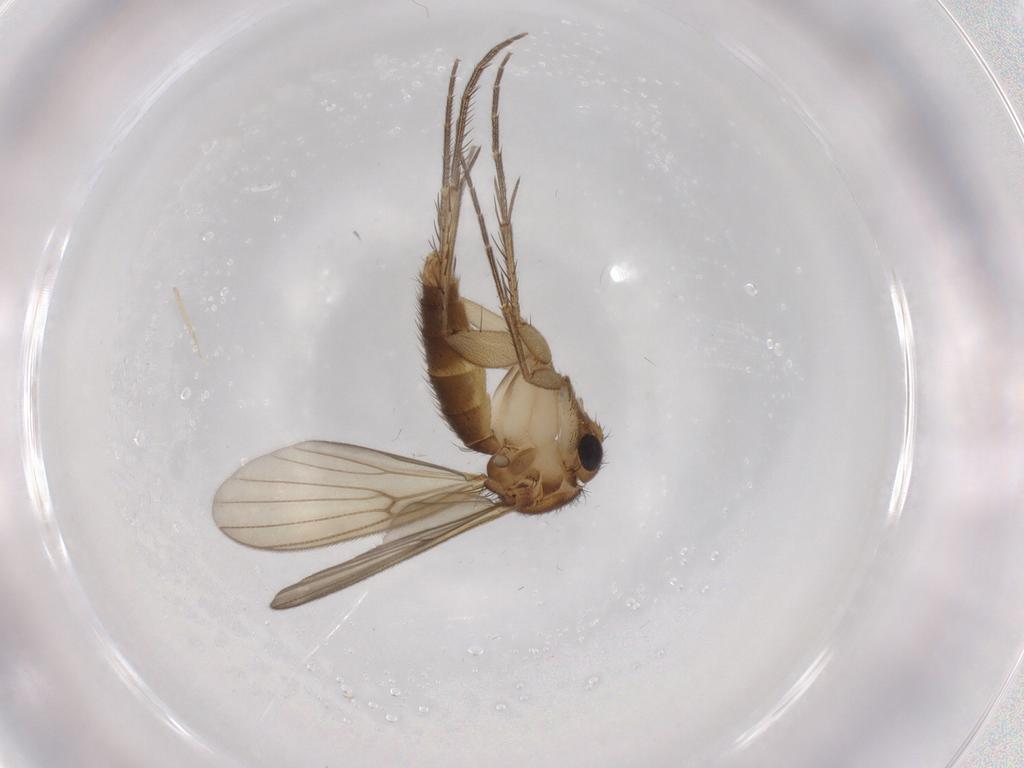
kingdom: Animalia
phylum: Arthropoda
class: Insecta
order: Diptera
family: Mycetophilidae
